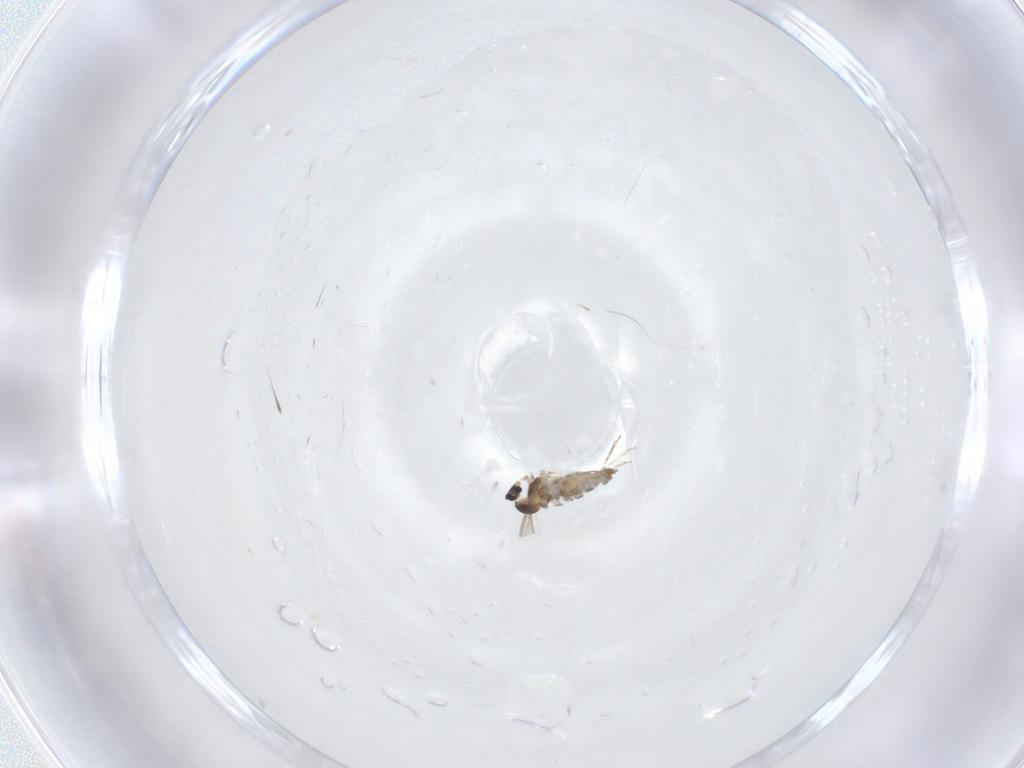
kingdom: Animalia
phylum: Arthropoda
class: Insecta
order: Diptera
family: Cecidomyiidae
